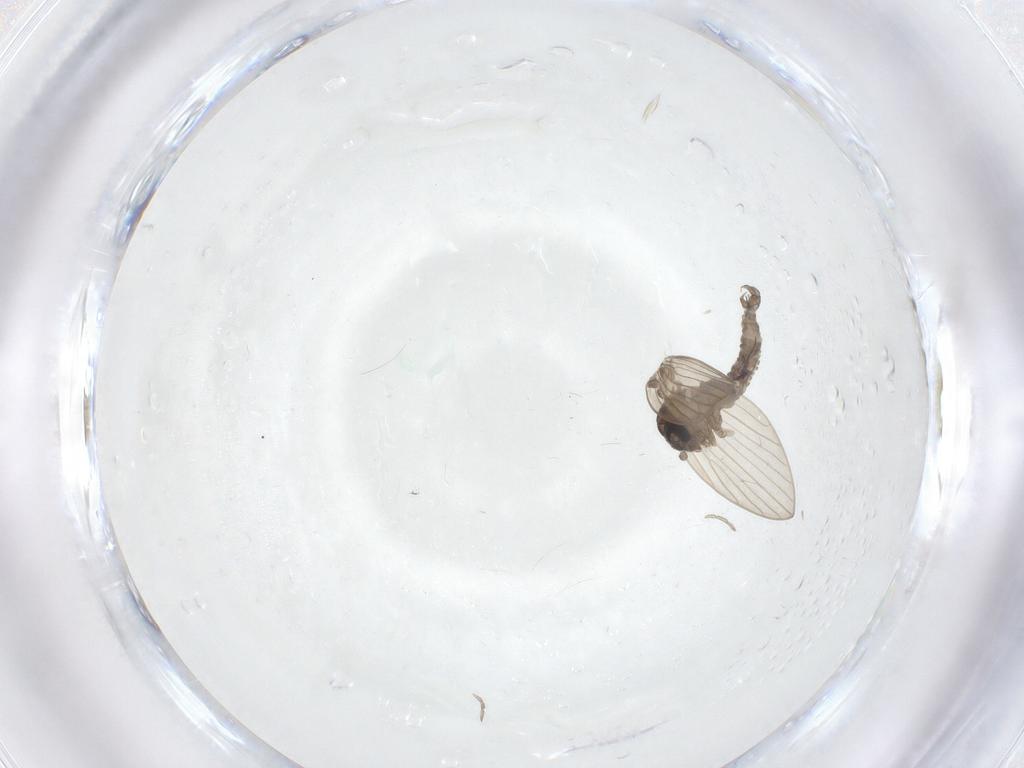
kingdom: Animalia
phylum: Arthropoda
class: Insecta
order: Diptera
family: Psychodidae
